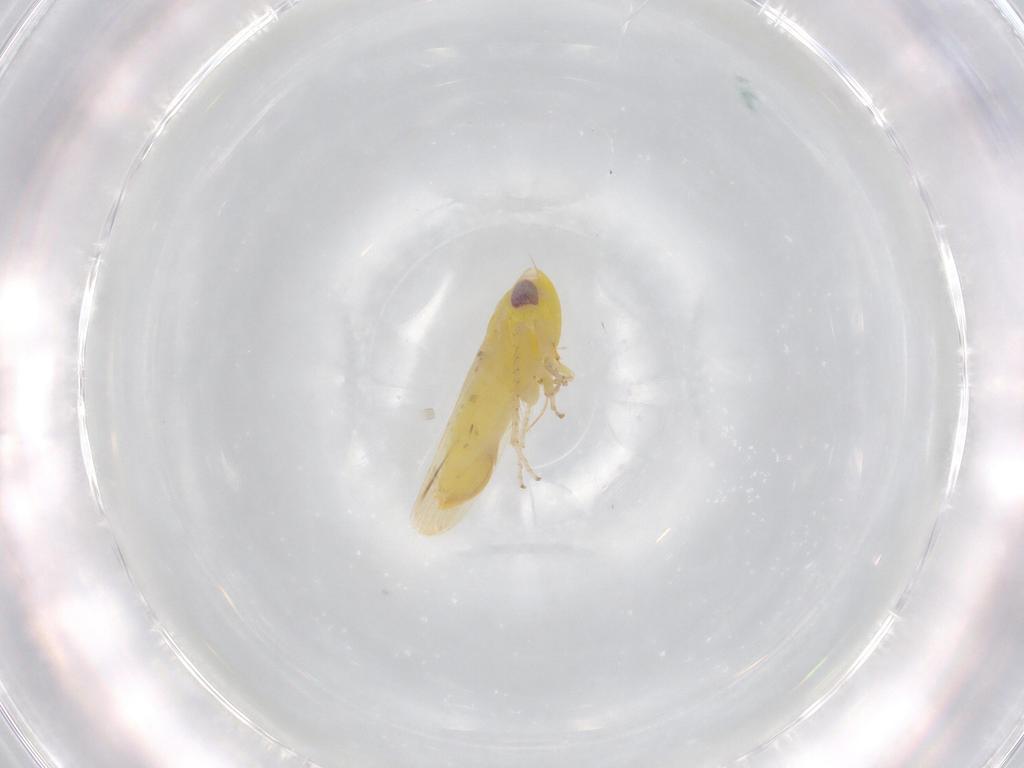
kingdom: Animalia
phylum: Arthropoda
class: Insecta
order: Hemiptera
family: Cicadellidae
